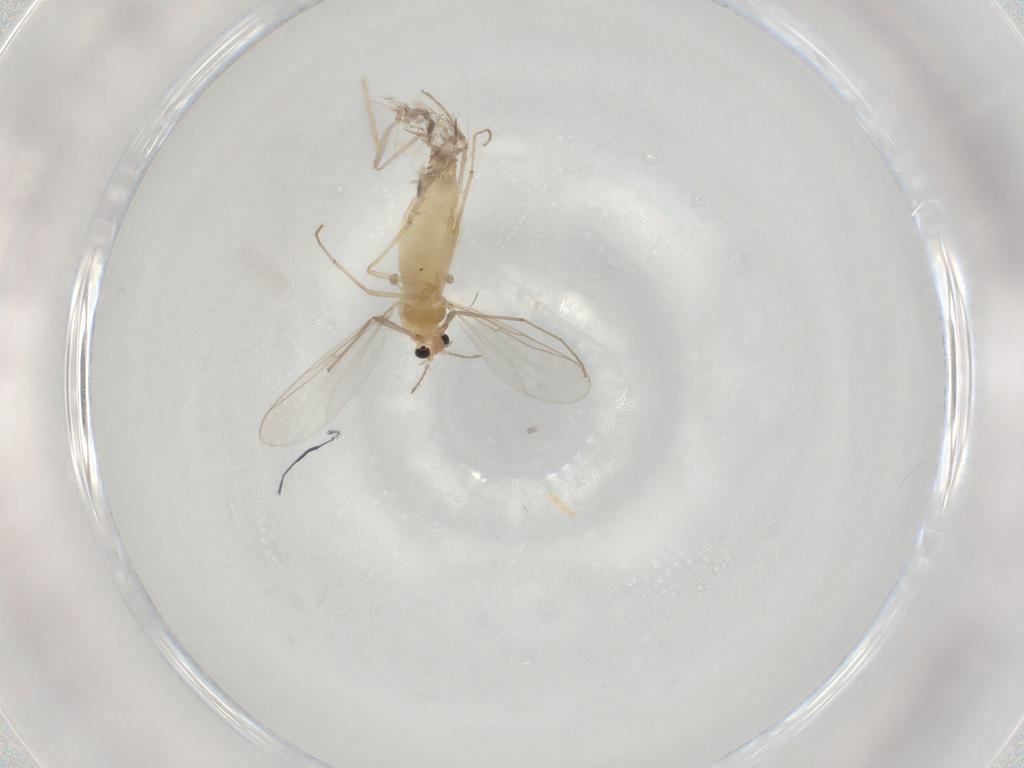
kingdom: Animalia
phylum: Arthropoda
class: Insecta
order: Diptera
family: Chironomidae
